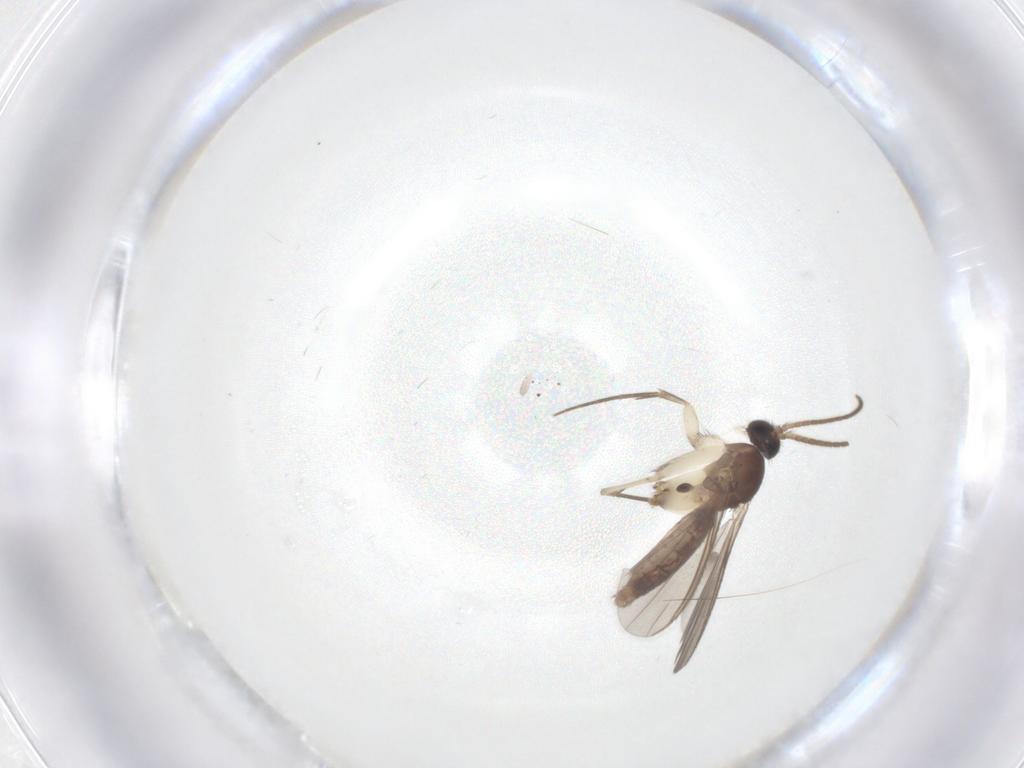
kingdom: Animalia
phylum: Arthropoda
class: Insecta
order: Diptera
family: Mycetophilidae
